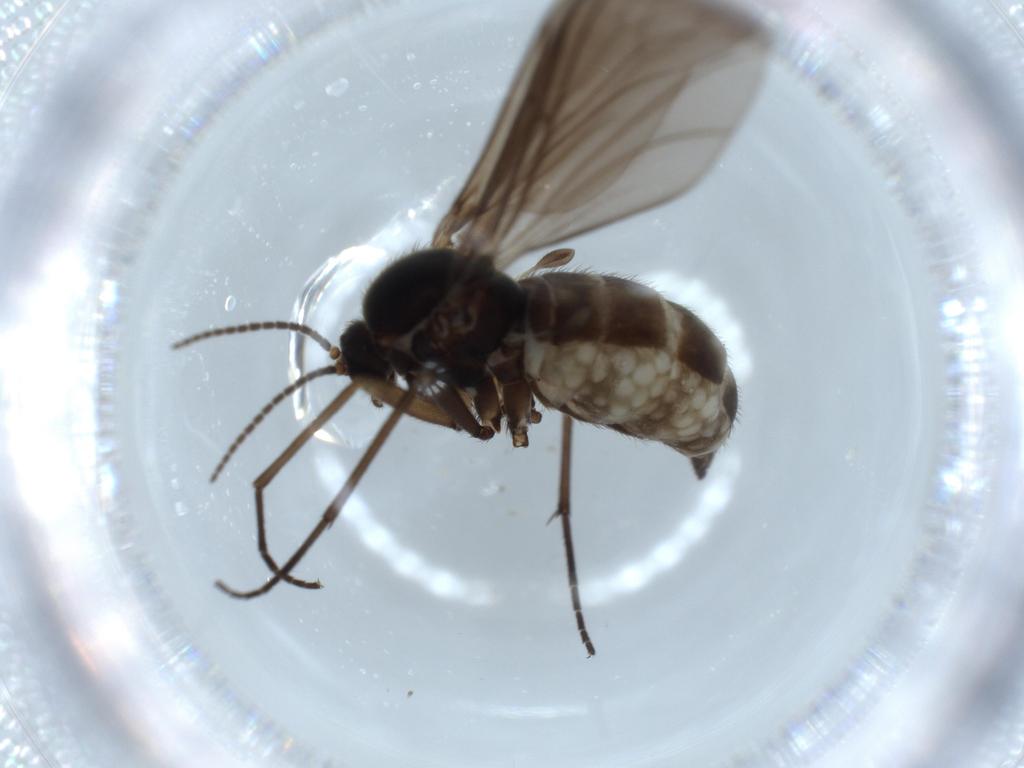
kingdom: Animalia
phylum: Arthropoda
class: Insecta
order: Diptera
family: Sciaridae
